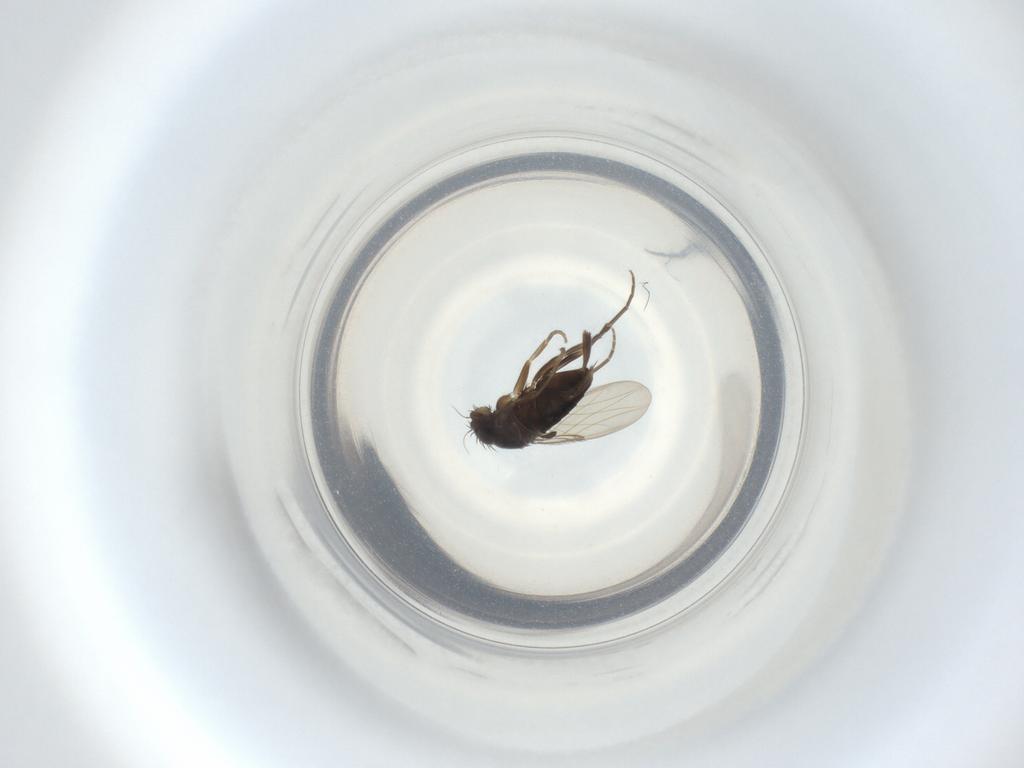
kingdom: Animalia
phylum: Arthropoda
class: Insecta
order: Diptera
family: Phoridae
